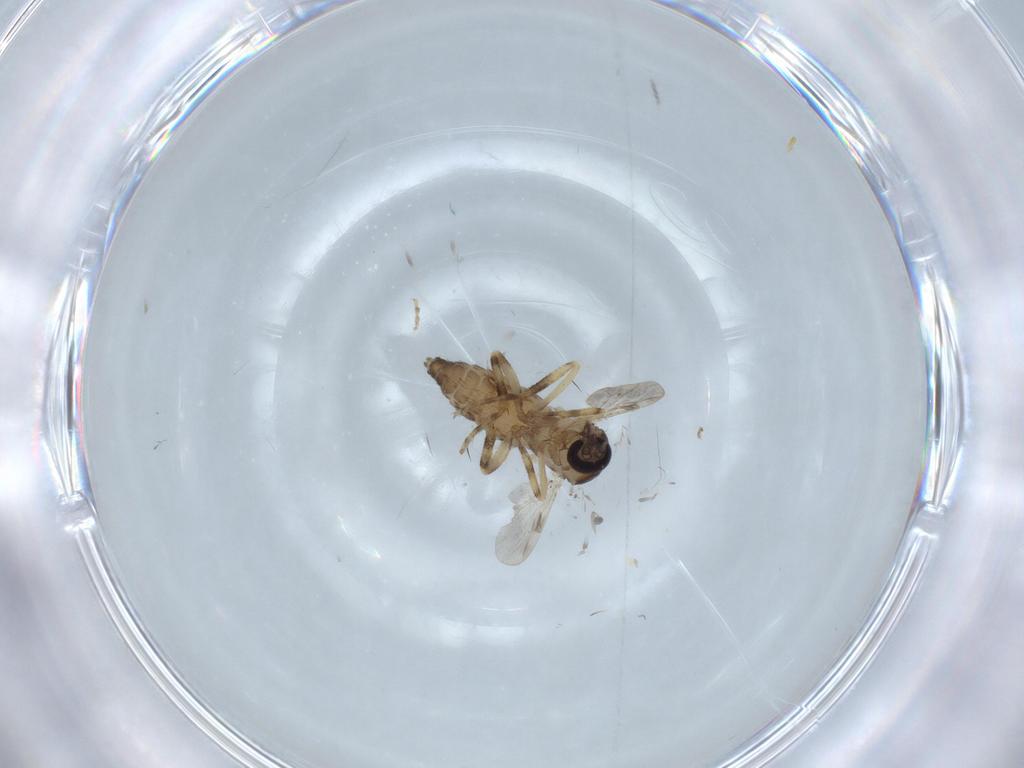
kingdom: Animalia
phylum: Arthropoda
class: Insecta
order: Diptera
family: Ceratopogonidae
